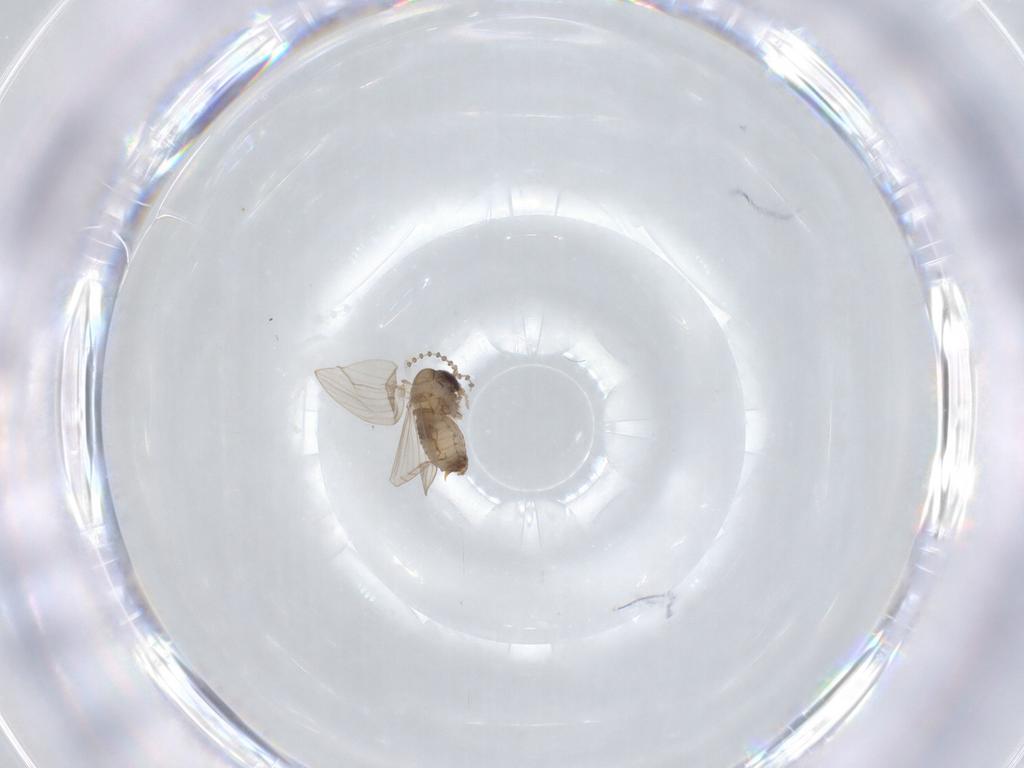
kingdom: Animalia
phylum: Arthropoda
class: Insecta
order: Diptera
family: Psychodidae
